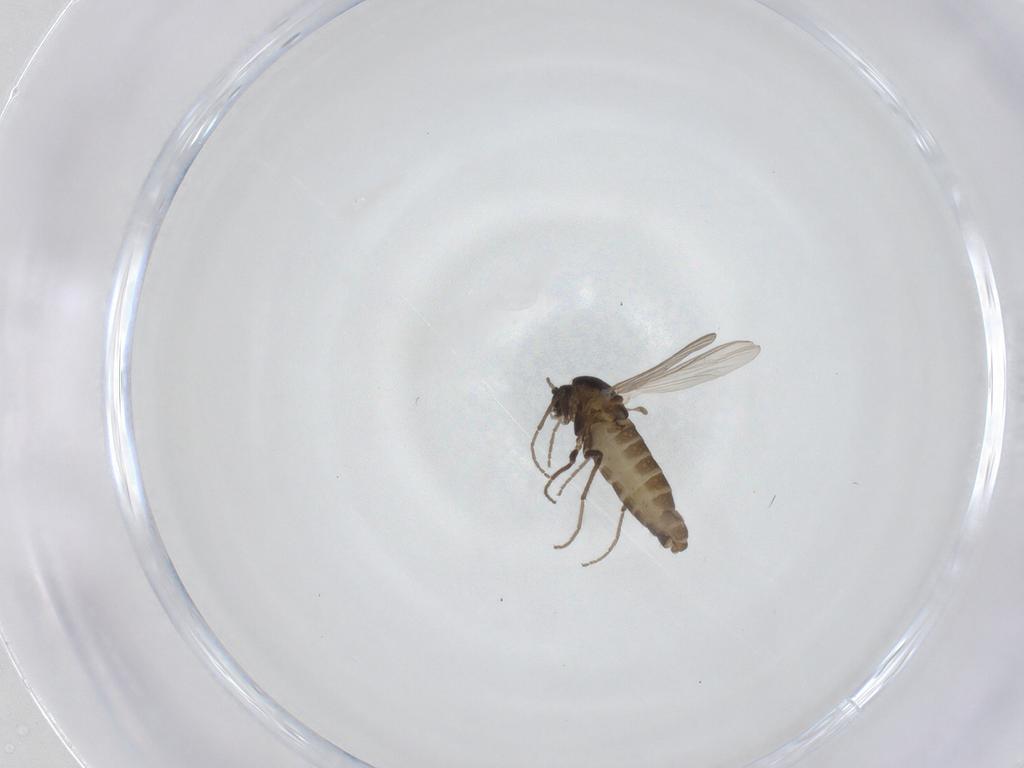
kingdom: Animalia
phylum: Arthropoda
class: Insecta
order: Diptera
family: Chironomidae
